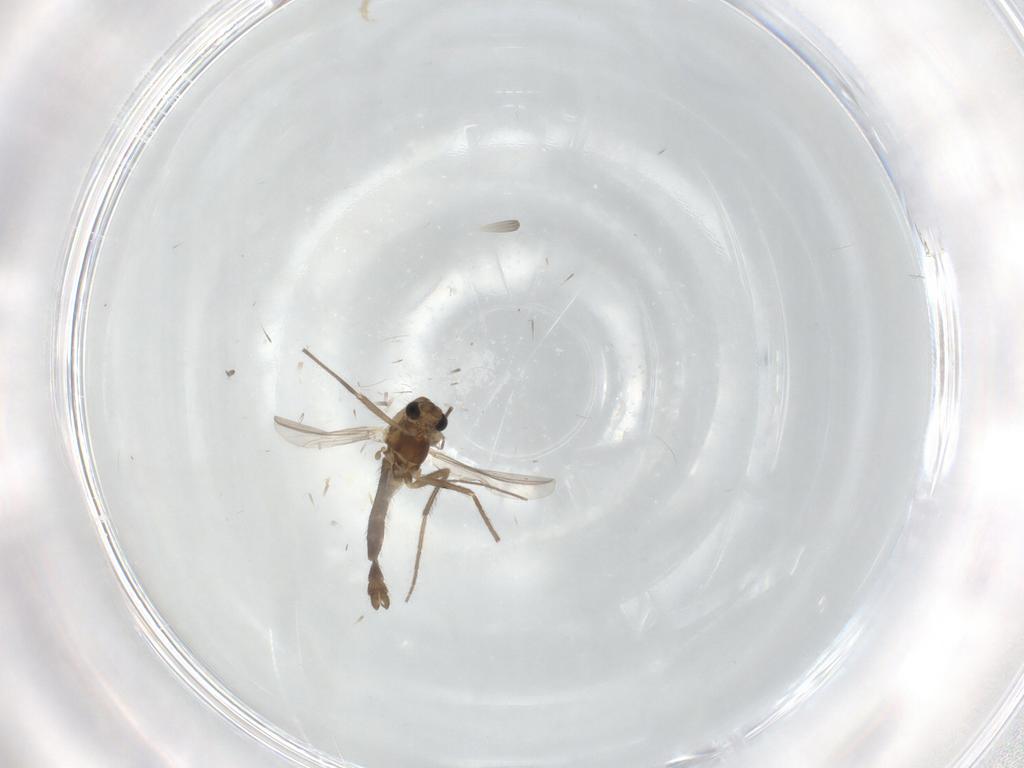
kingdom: Animalia
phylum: Arthropoda
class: Insecta
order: Diptera
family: Chironomidae
